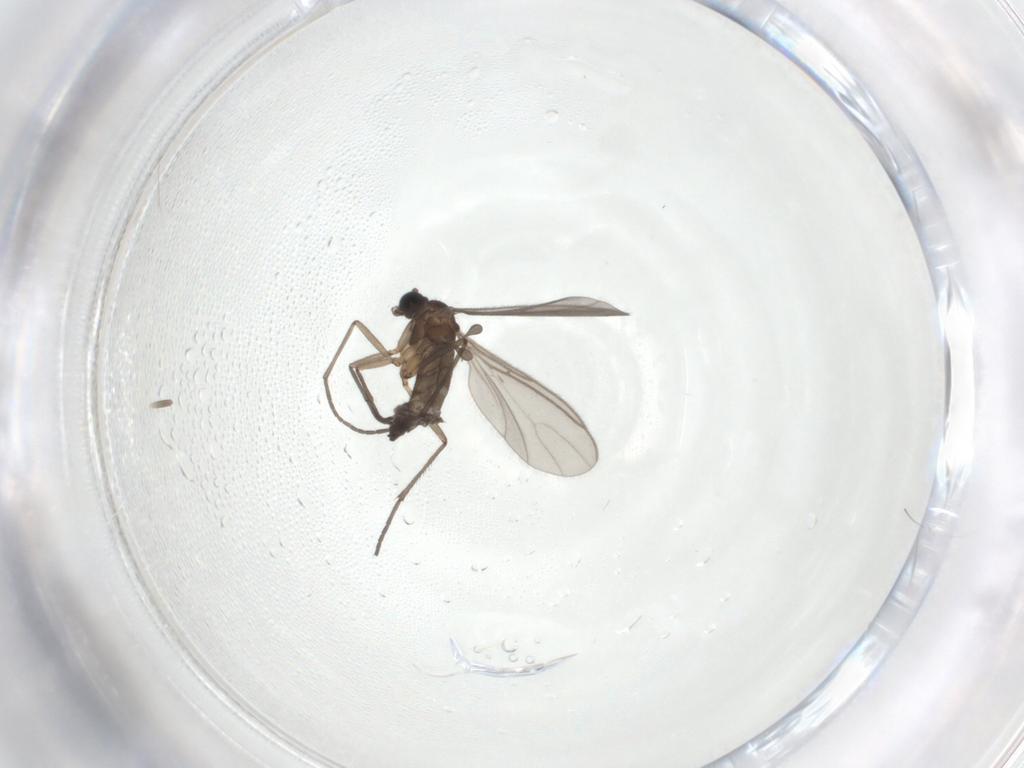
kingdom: Animalia
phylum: Arthropoda
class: Insecta
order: Diptera
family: Sciaridae
